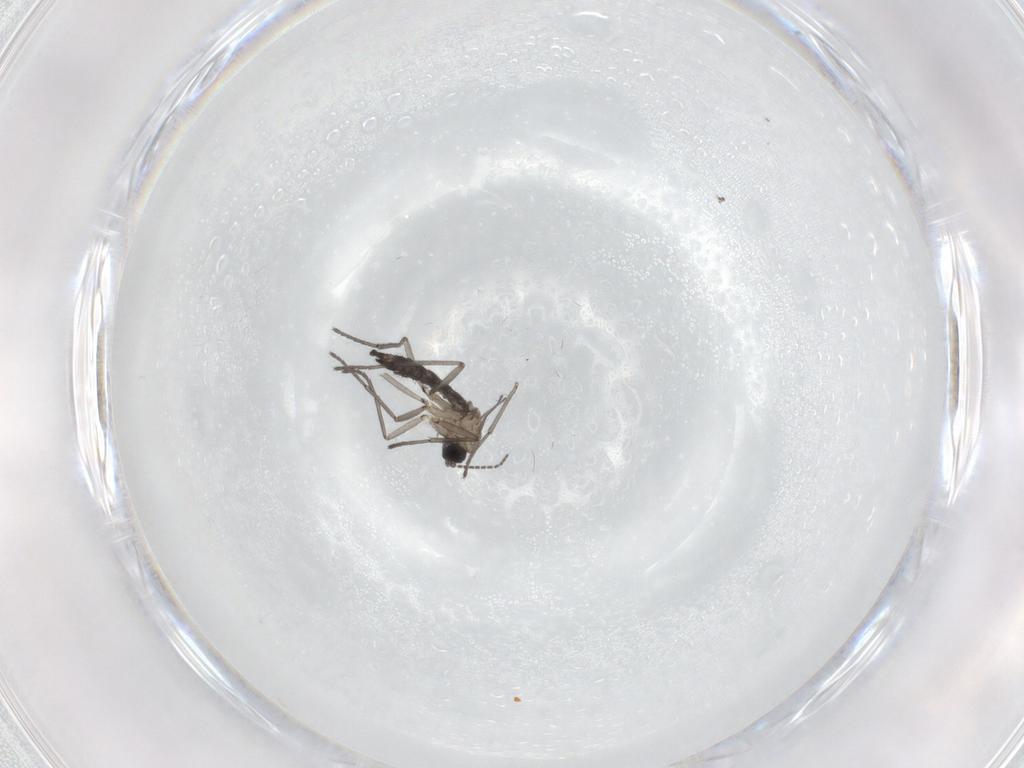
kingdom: Animalia
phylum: Arthropoda
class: Insecta
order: Diptera
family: Sciaridae
